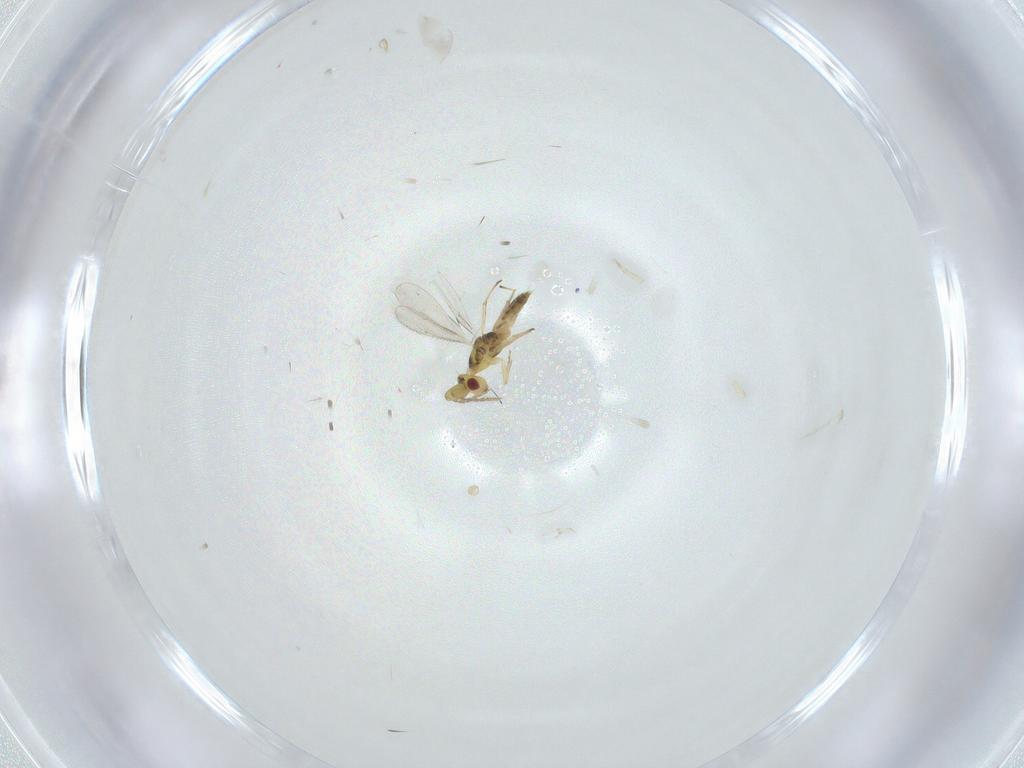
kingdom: Animalia
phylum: Arthropoda
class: Insecta
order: Hymenoptera
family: Eulophidae
